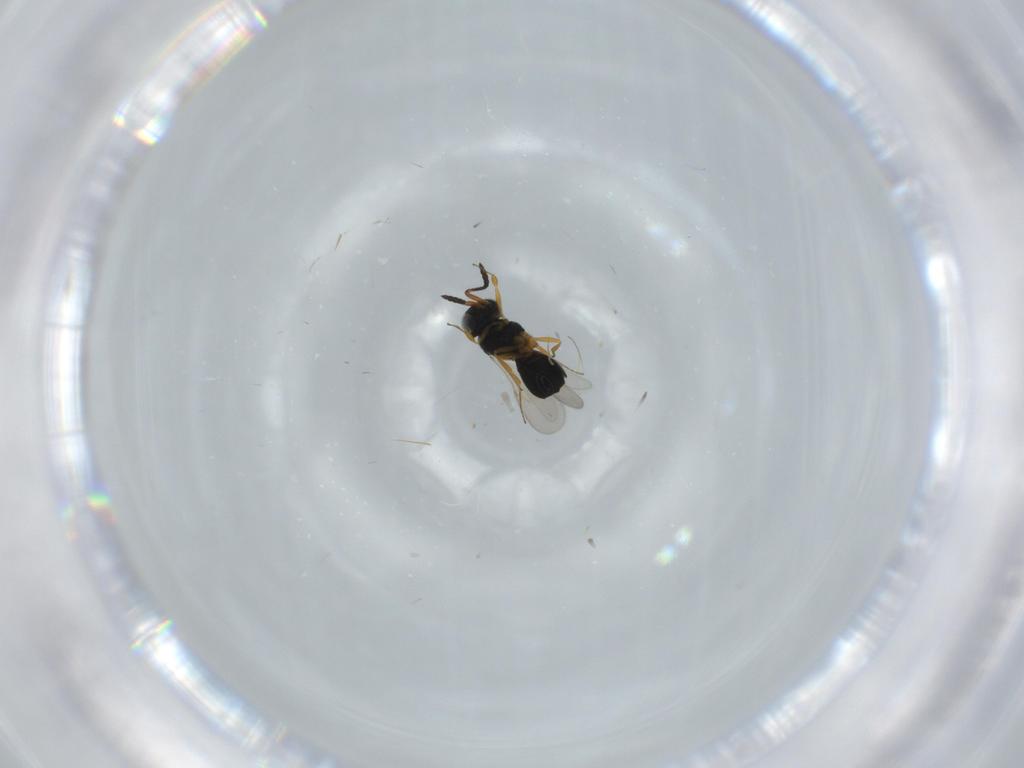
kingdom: Animalia
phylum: Arthropoda
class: Insecta
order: Hymenoptera
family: Scelionidae
